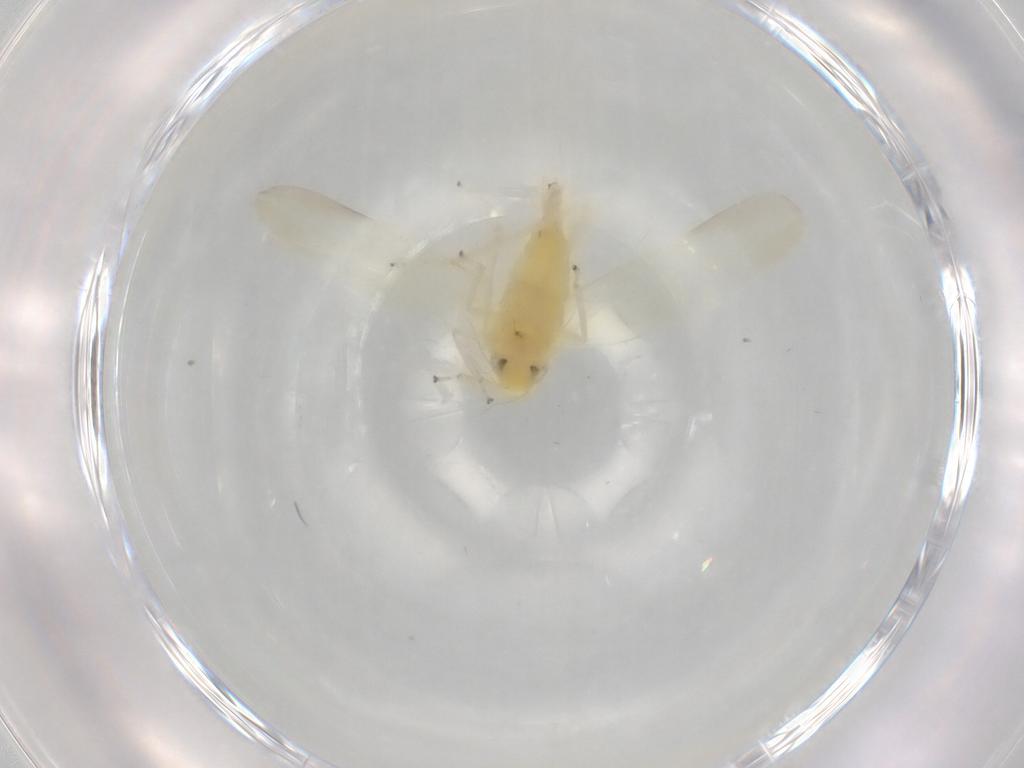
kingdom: Animalia
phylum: Arthropoda
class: Insecta
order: Hemiptera
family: Cicadellidae
